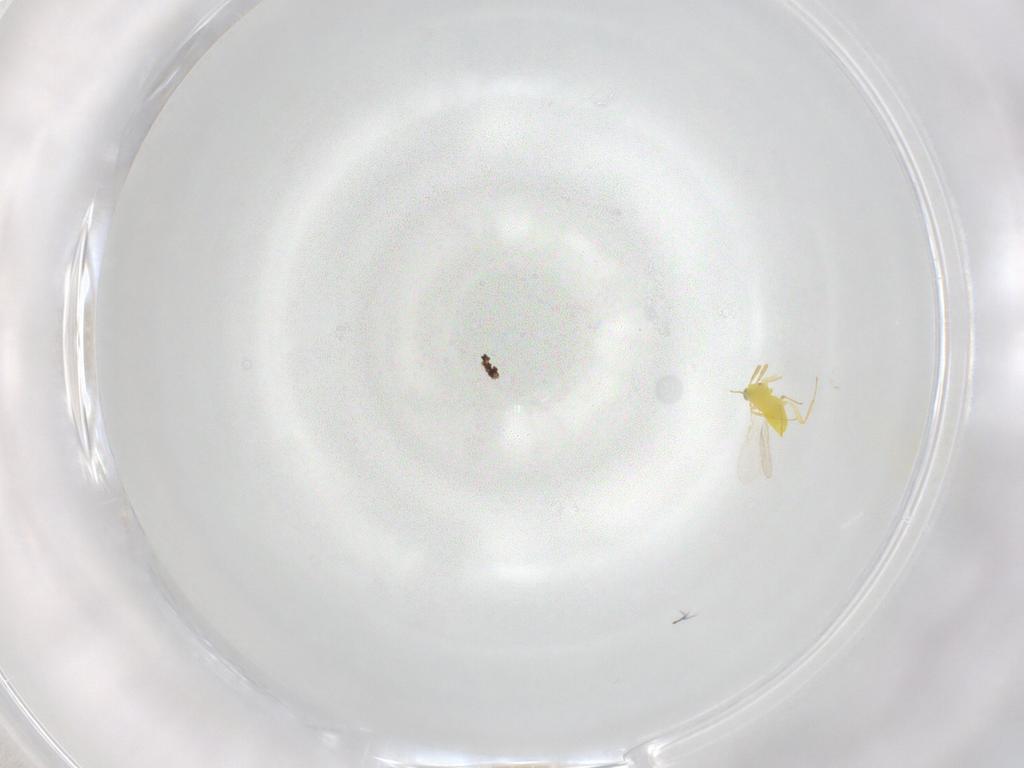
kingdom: Animalia
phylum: Arthropoda
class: Insecta
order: Hymenoptera
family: Aphelinidae
